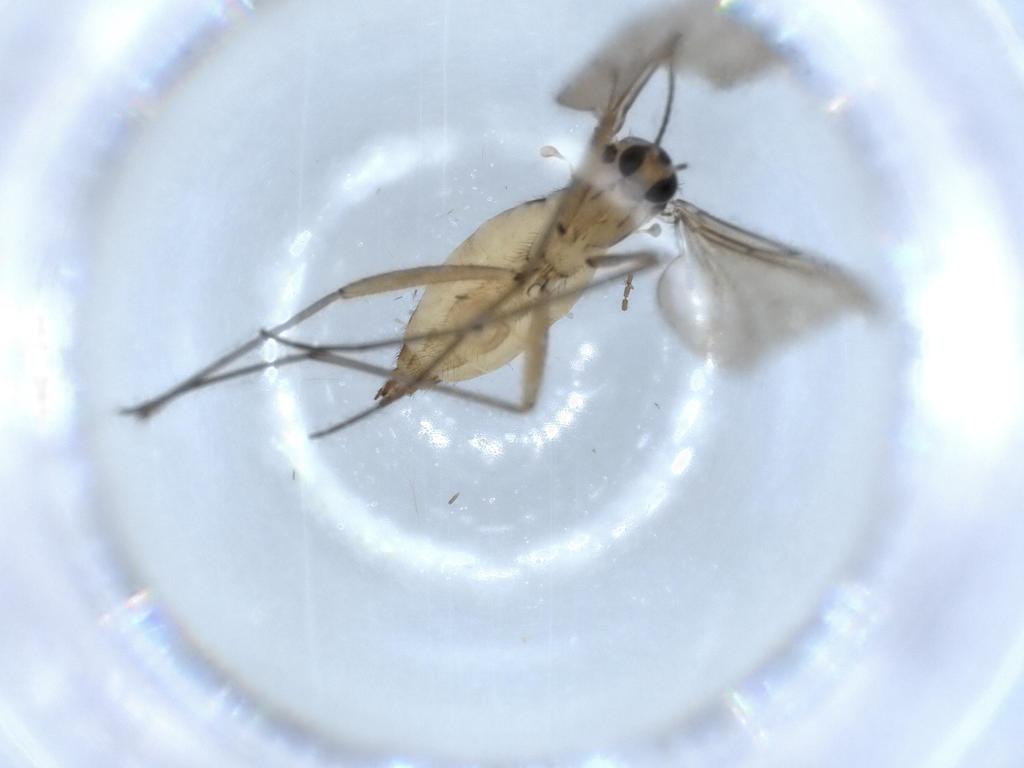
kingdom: Animalia
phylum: Arthropoda
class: Insecta
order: Diptera
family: Sciaridae
